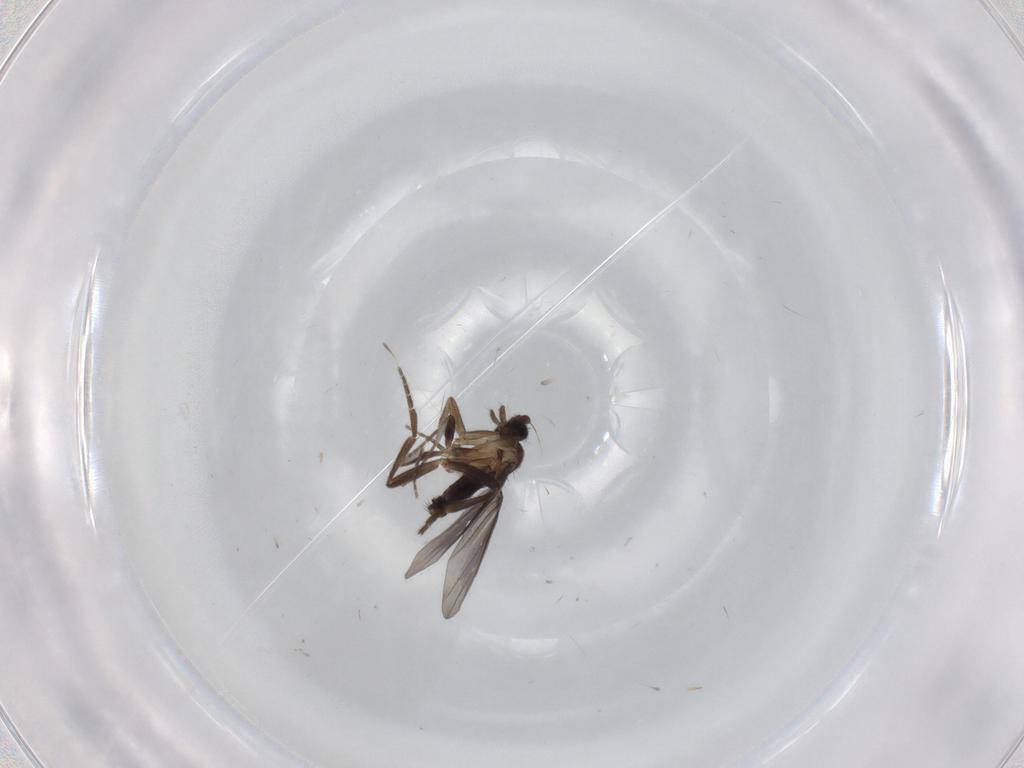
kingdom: Animalia
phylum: Arthropoda
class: Insecta
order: Diptera
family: Phoridae
